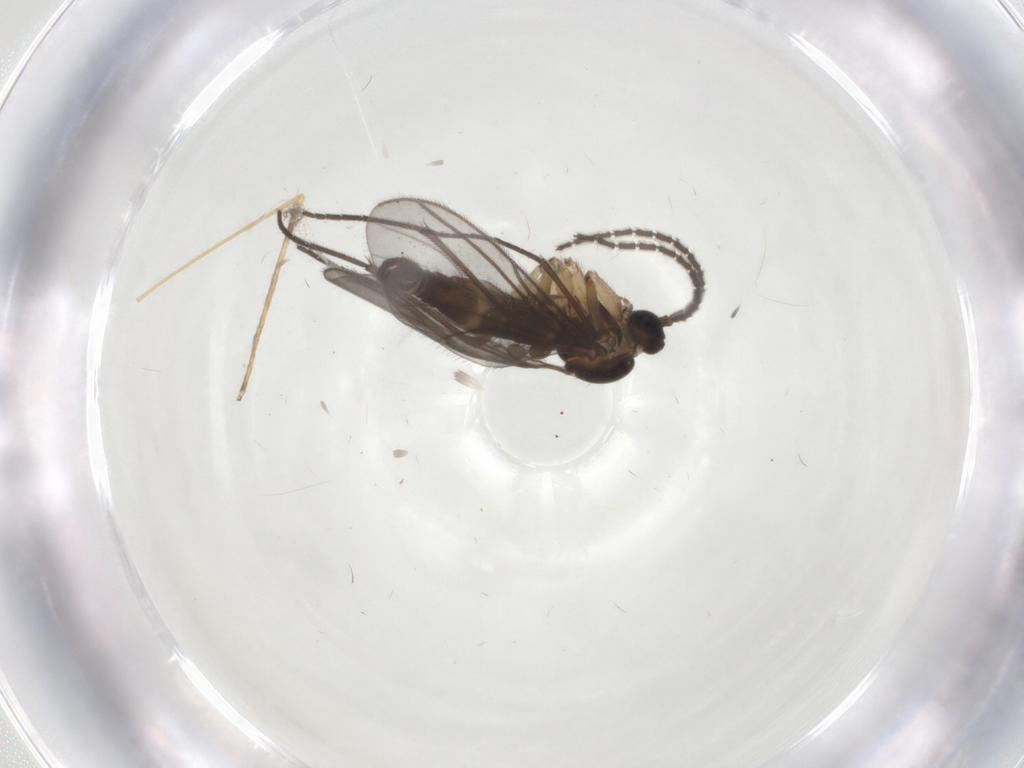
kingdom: Animalia
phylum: Arthropoda
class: Insecta
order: Diptera
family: Sciaridae
